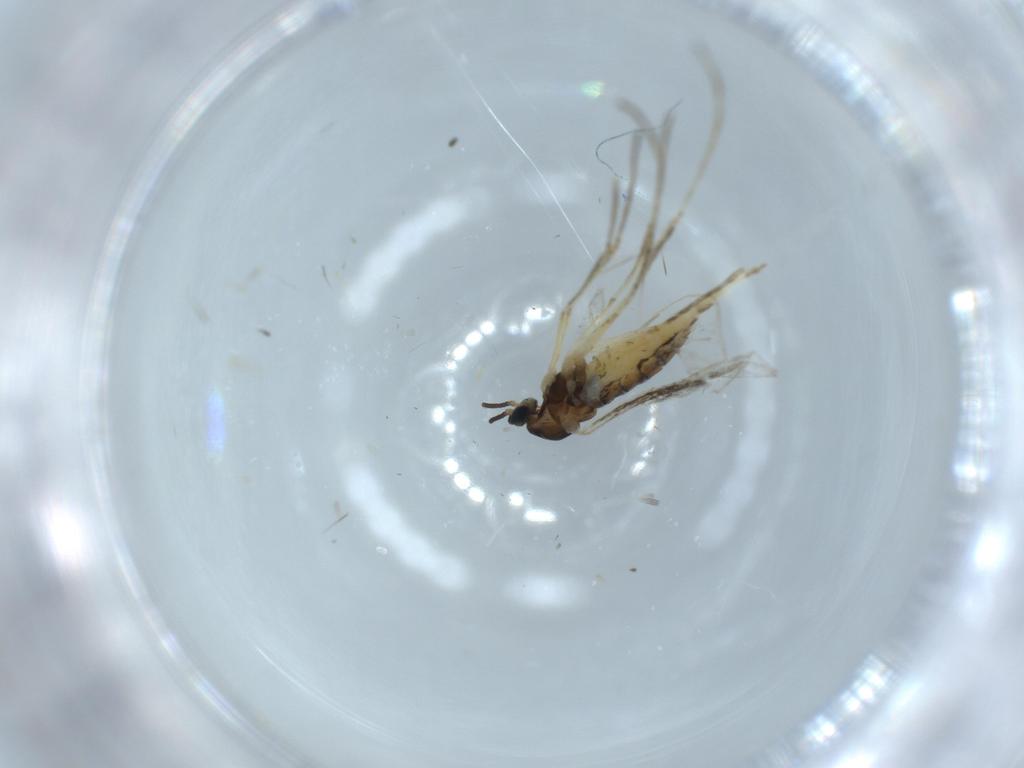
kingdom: Animalia
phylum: Arthropoda
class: Insecta
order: Diptera
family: Cecidomyiidae
